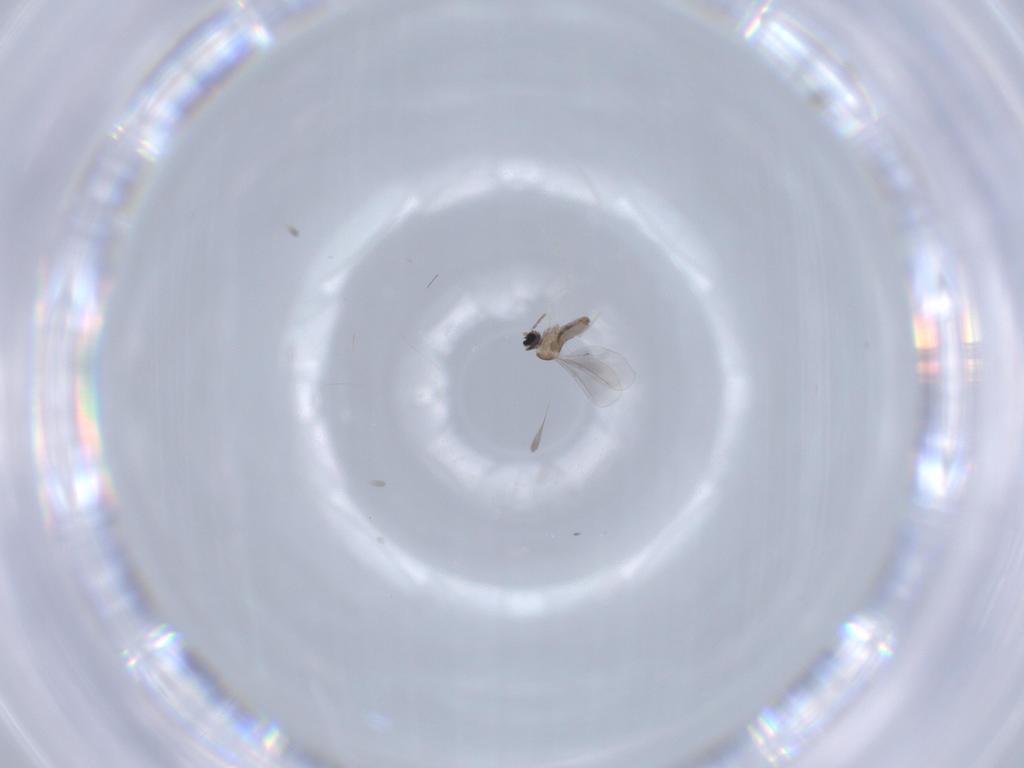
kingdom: Animalia
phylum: Arthropoda
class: Insecta
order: Diptera
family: Cecidomyiidae
